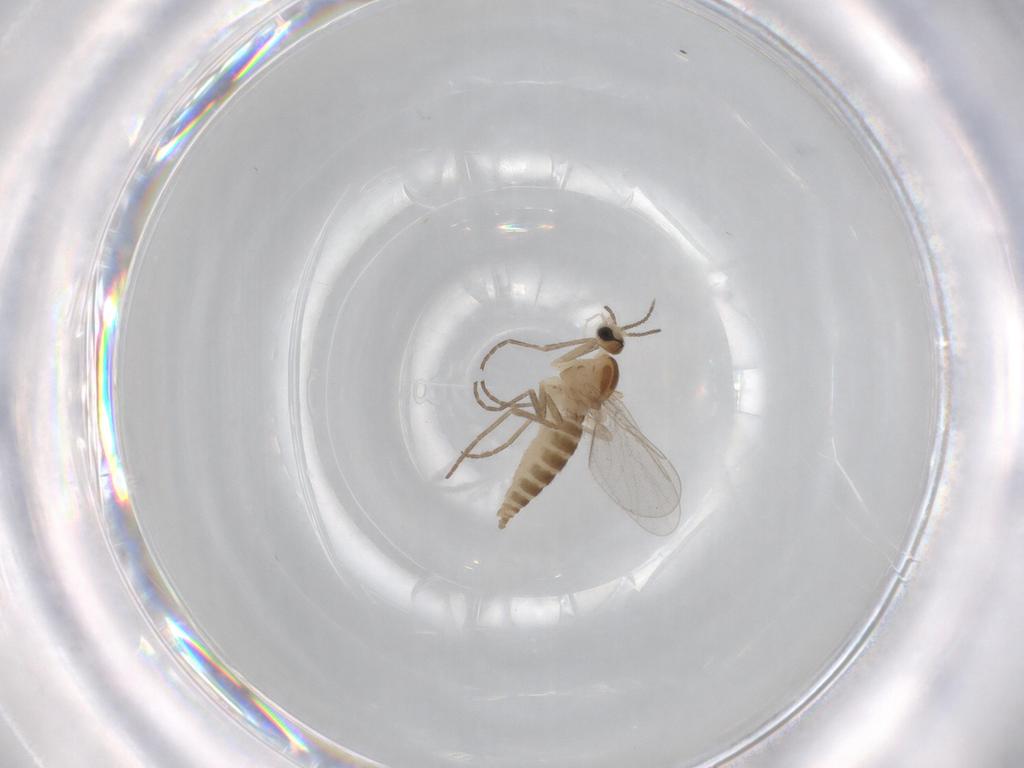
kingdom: Animalia
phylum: Arthropoda
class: Insecta
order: Diptera
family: Cecidomyiidae
